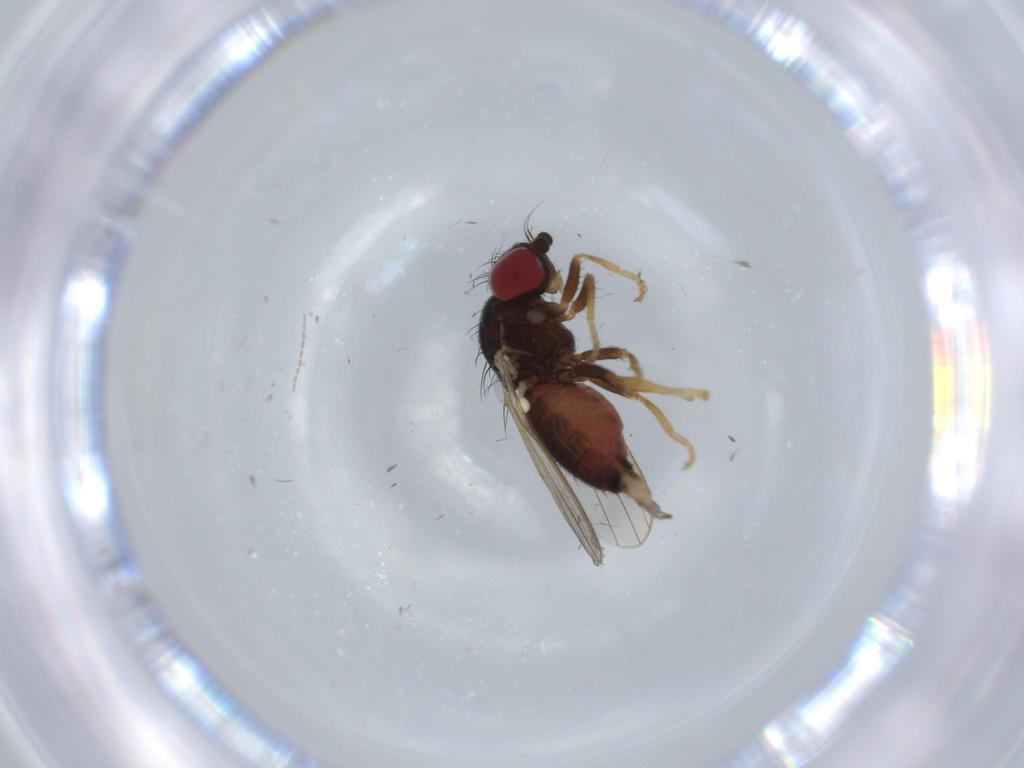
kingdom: Animalia
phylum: Arthropoda
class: Insecta
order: Diptera
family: Chamaemyiidae
